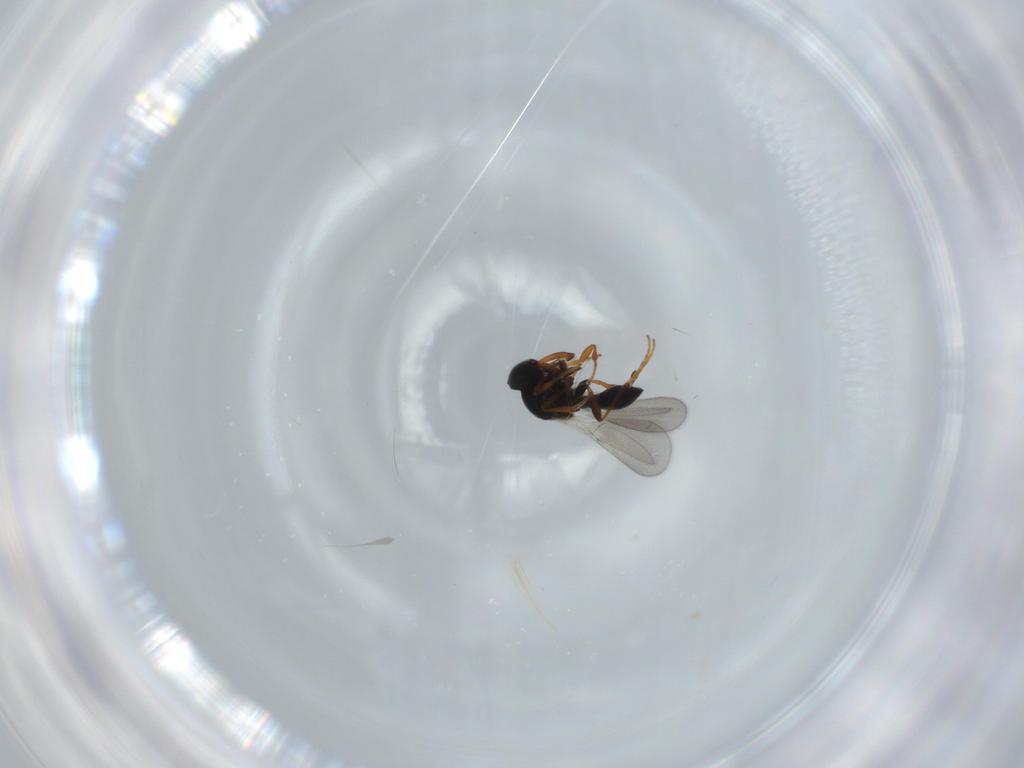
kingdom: Animalia
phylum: Arthropoda
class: Insecta
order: Hymenoptera
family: Platygastridae
